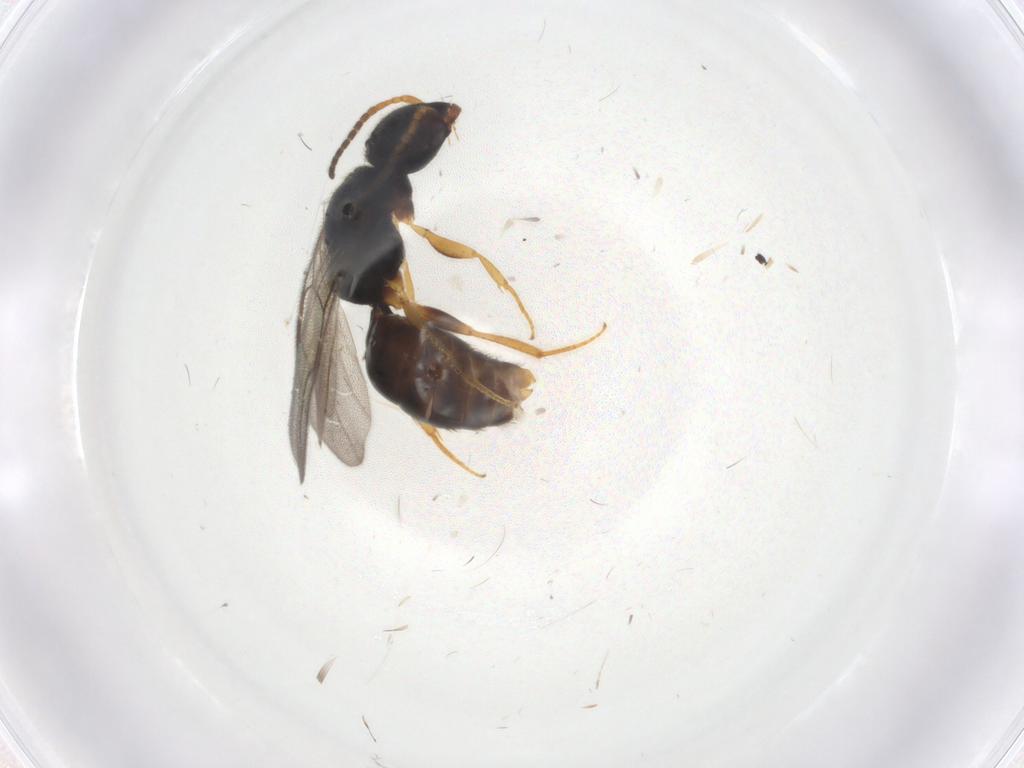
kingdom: Animalia
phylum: Arthropoda
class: Insecta
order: Hymenoptera
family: Bethylidae
